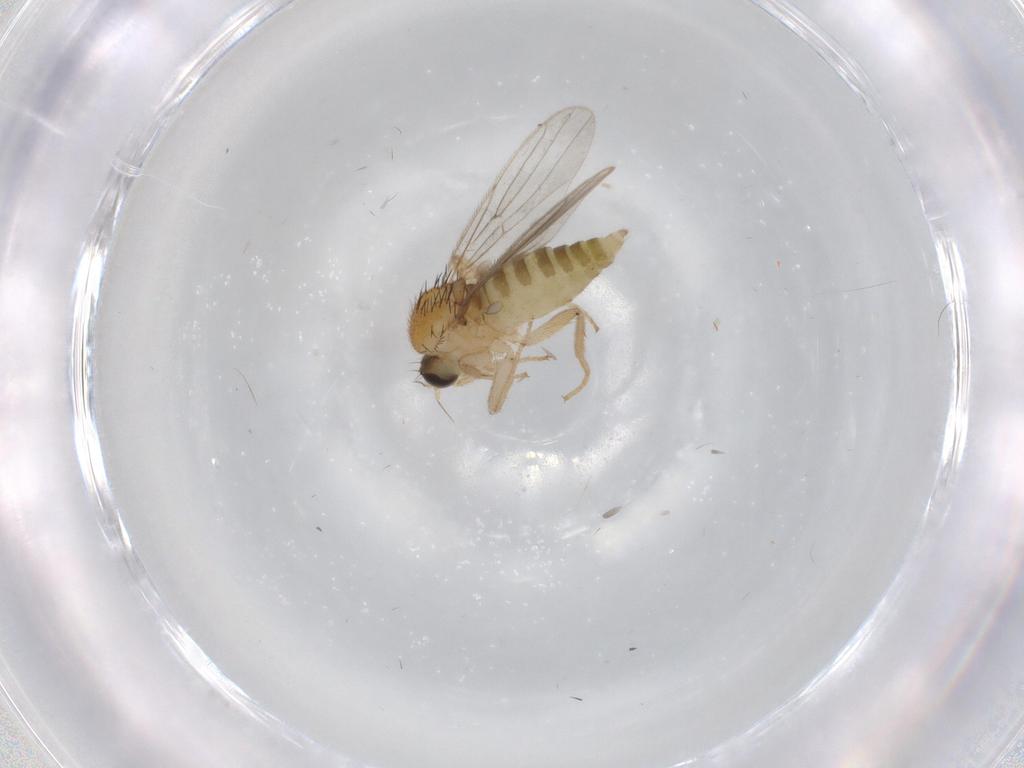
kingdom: Animalia
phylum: Arthropoda
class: Insecta
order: Diptera
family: Hybotidae
